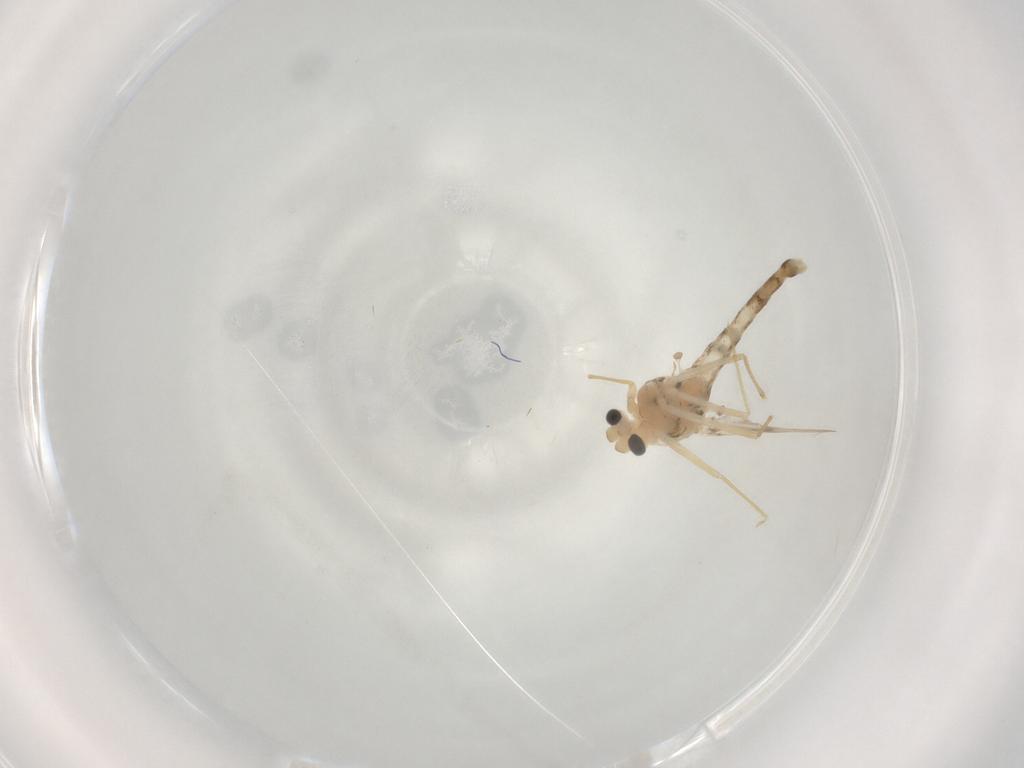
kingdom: Animalia
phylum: Arthropoda
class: Insecta
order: Diptera
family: Chironomidae
